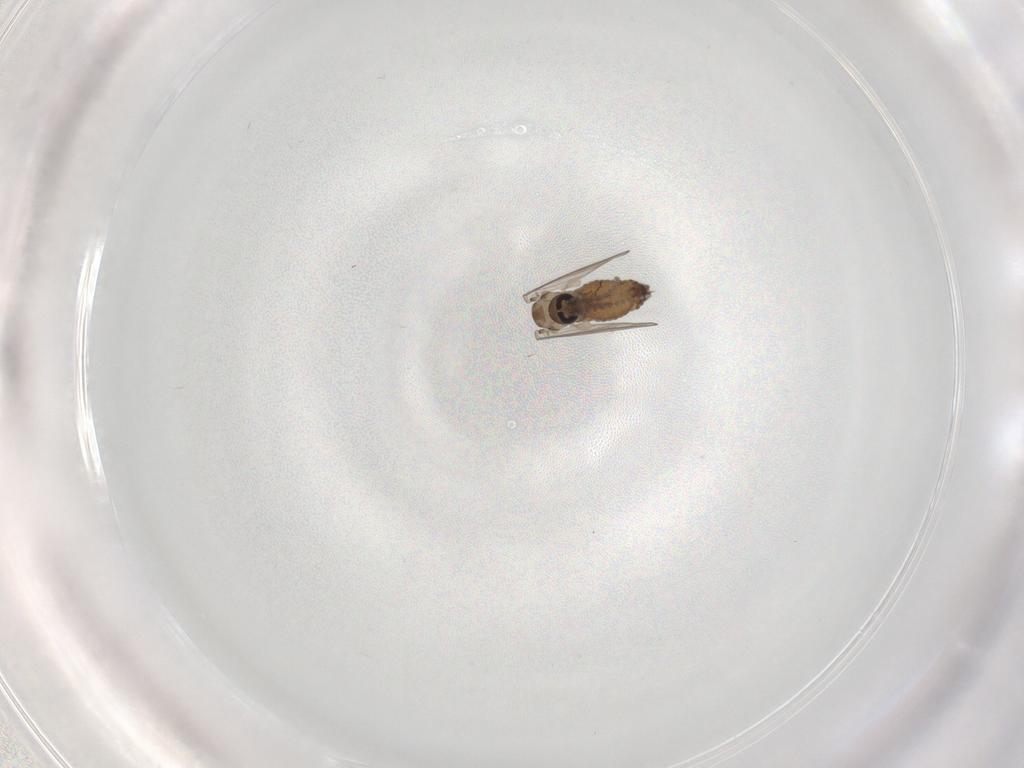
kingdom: Animalia
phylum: Arthropoda
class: Insecta
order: Diptera
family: Psychodidae
